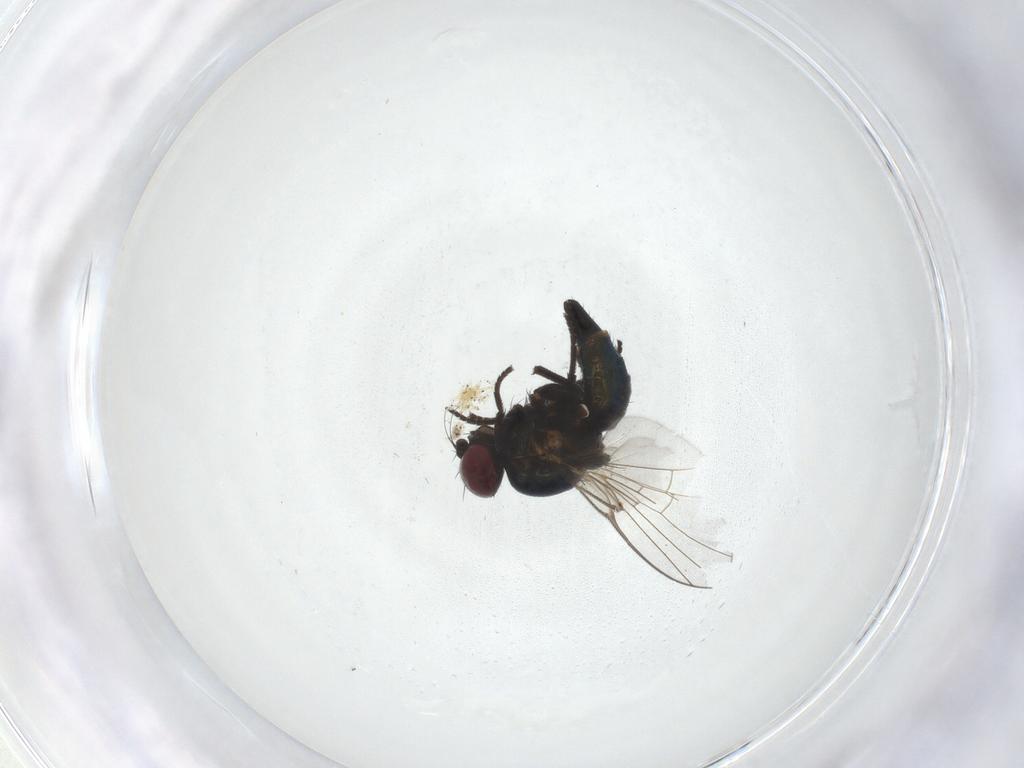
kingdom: Animalia
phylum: Arthropoda
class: Insecta
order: Diptera
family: Agromyzidae
